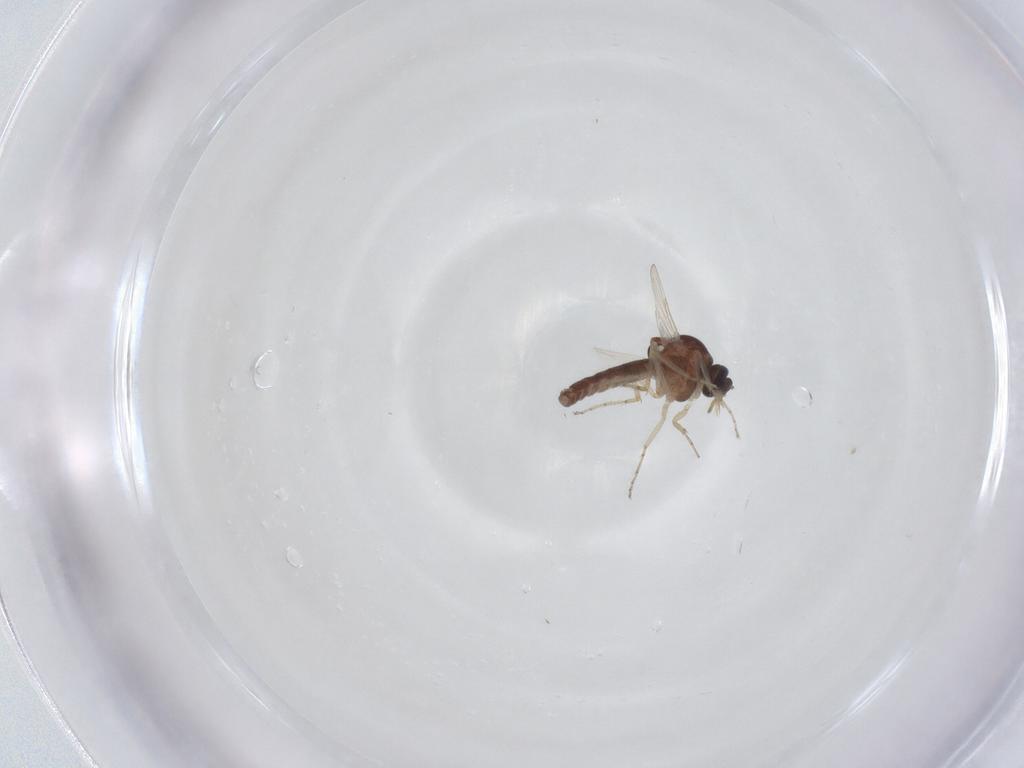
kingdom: Animalia
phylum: Arthropoda
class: Insecta
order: Diptera
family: Ceratopogonidae
